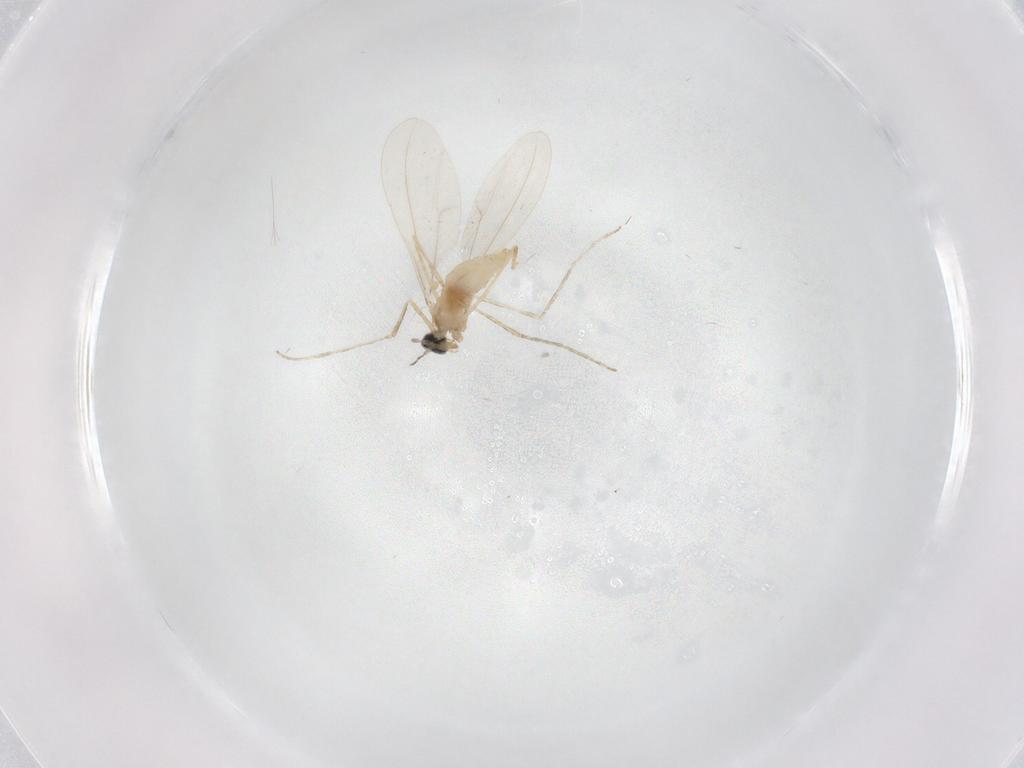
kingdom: Animalia
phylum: Arthropoda
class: Insecta
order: Diptera
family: Cecidomyiidae
